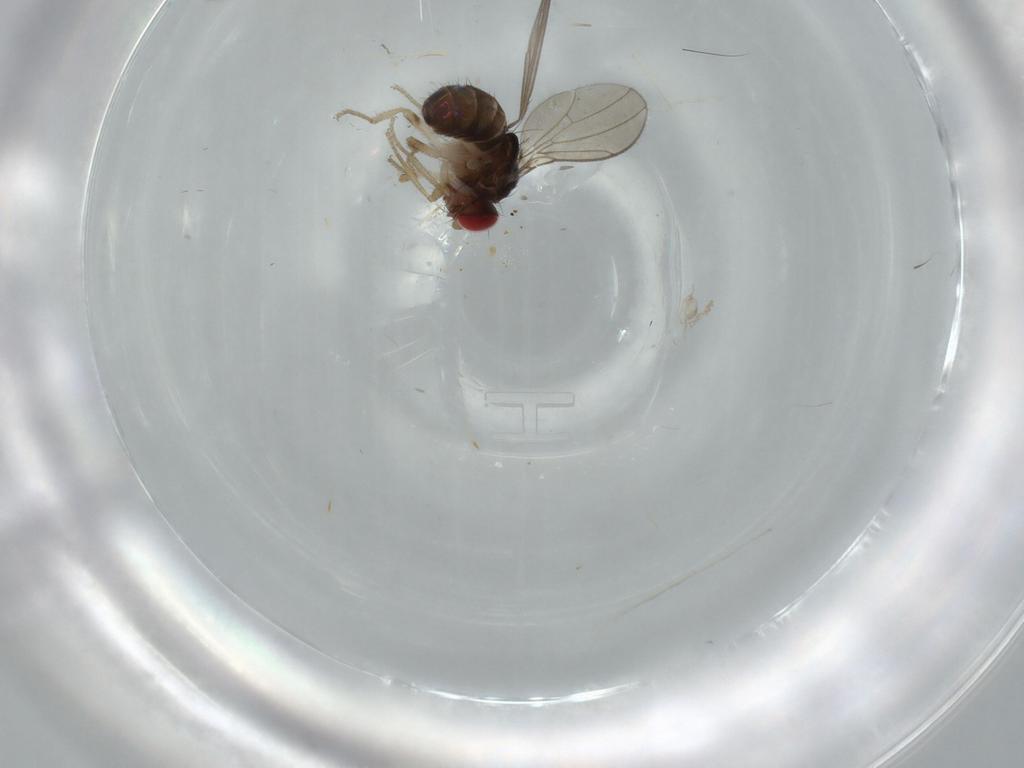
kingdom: Animalia
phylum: Arthropoda
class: Insecta
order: Diptera
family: Drosophilidae
